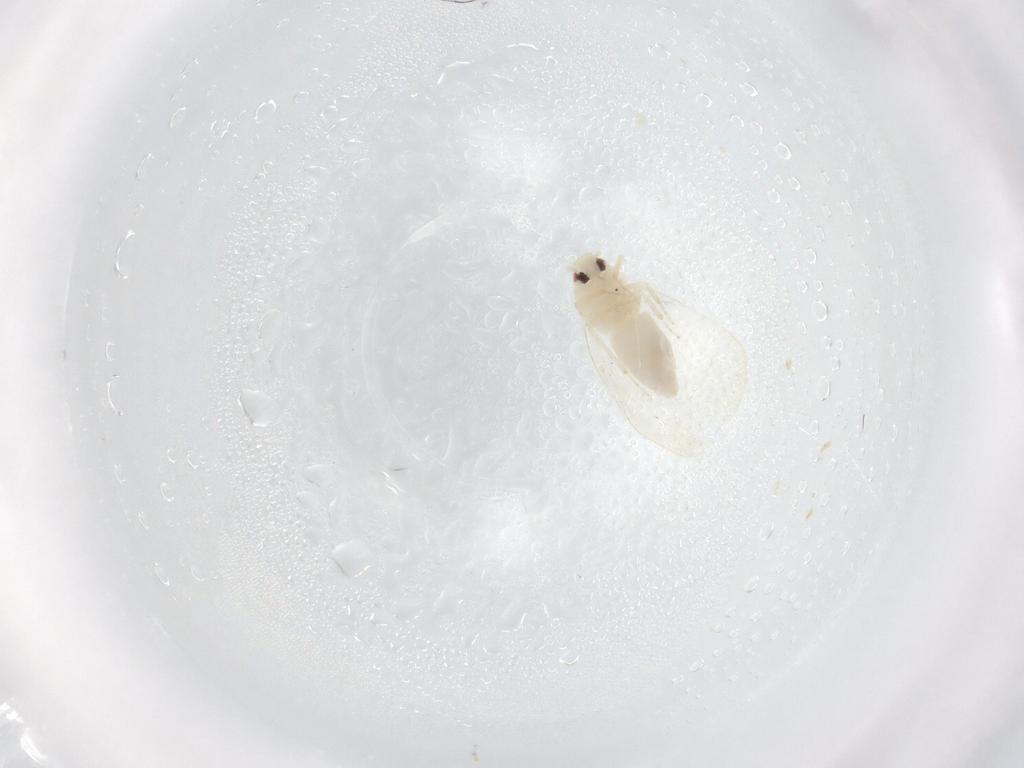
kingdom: Animalia
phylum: Arthropoda
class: Insecta
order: Hemiptera
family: Aleyrodidae
